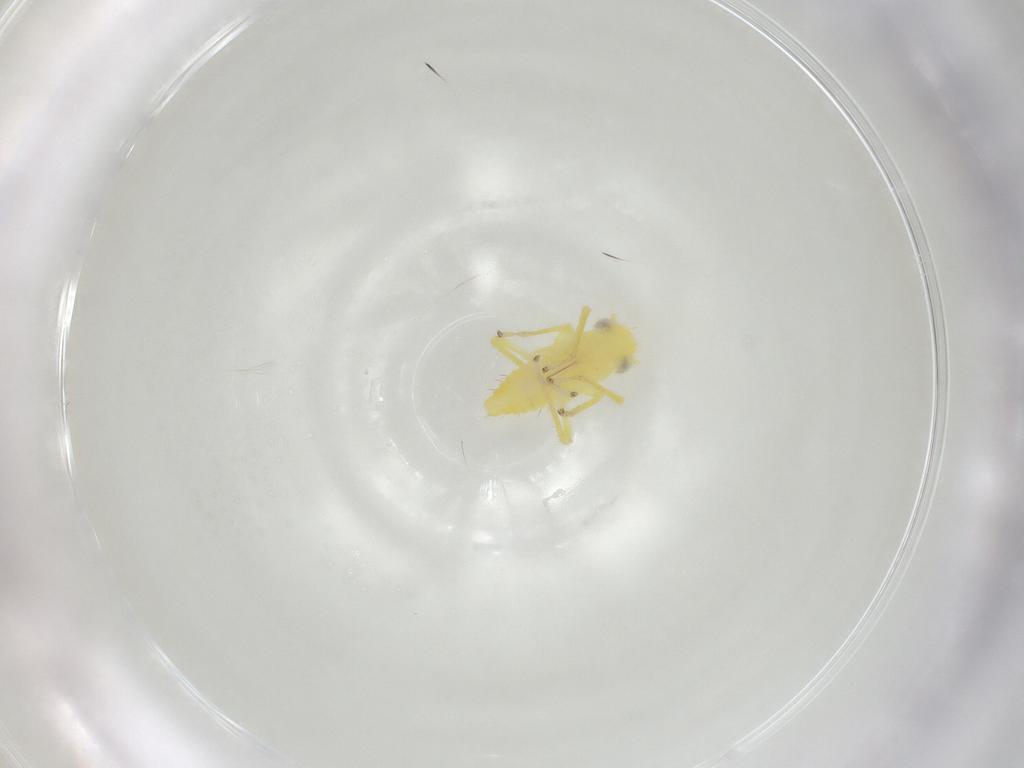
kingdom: Animalia
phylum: Arthropoda
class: Insecta
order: Hemiptera
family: Cicadellidae
